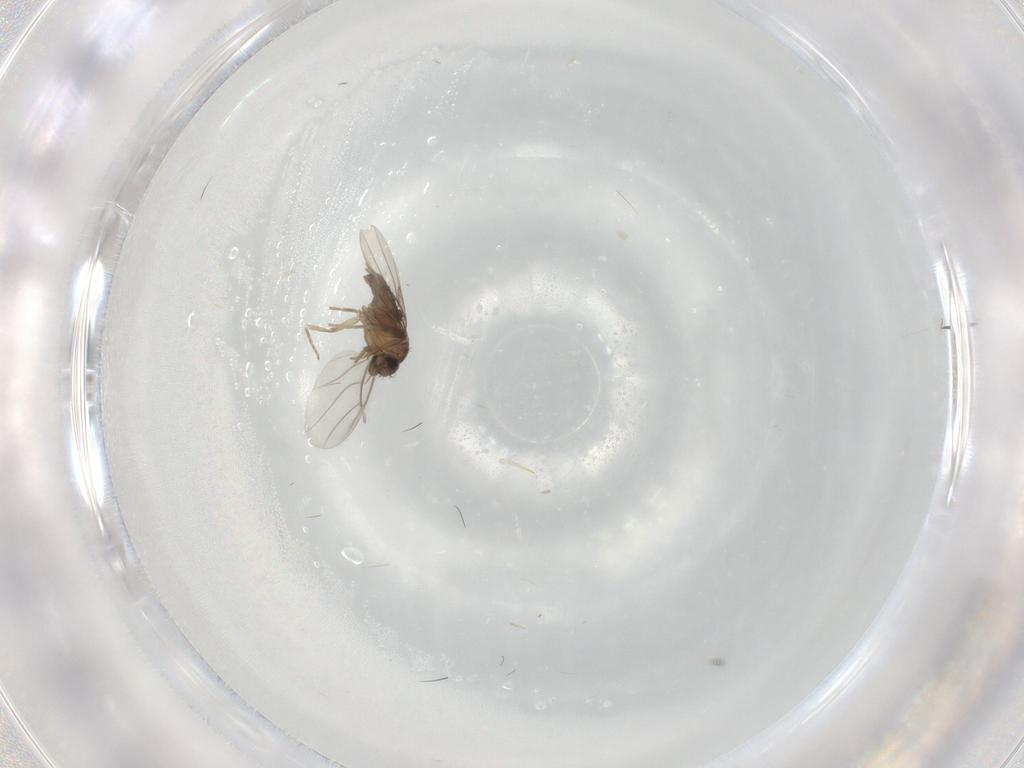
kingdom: Animalia
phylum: Arthropoda
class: Insecta
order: Diptera
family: Phoridae
